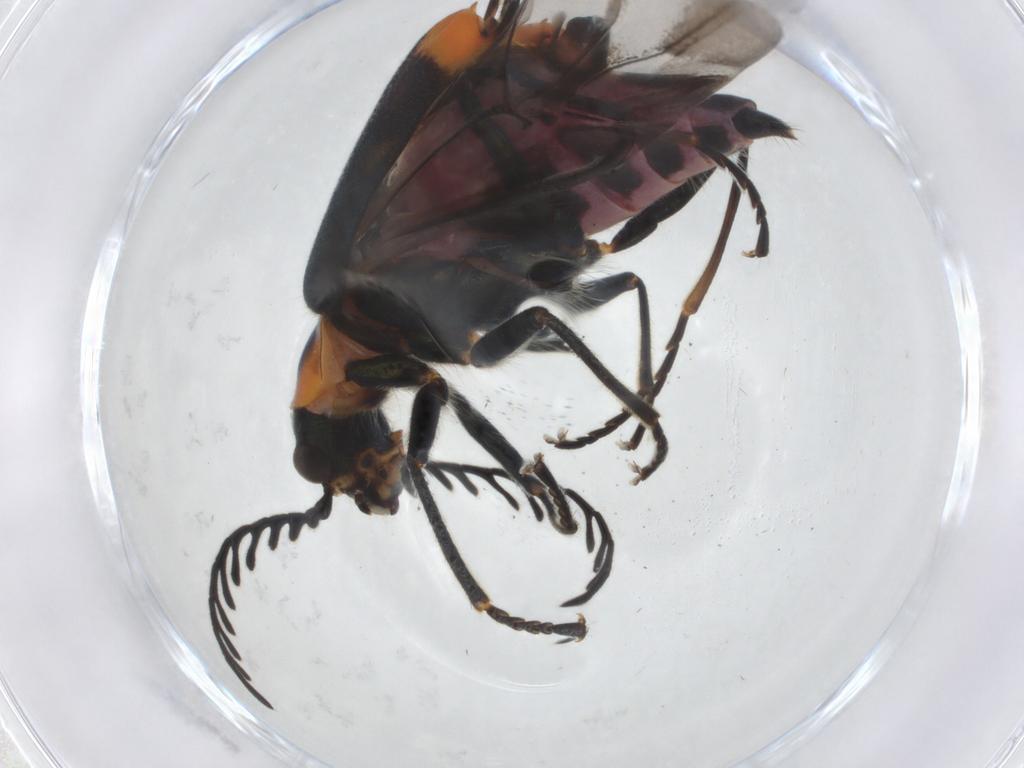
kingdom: Animalia
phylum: Arthropoda
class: Insecta
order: Coleoptera
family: Melyridae
